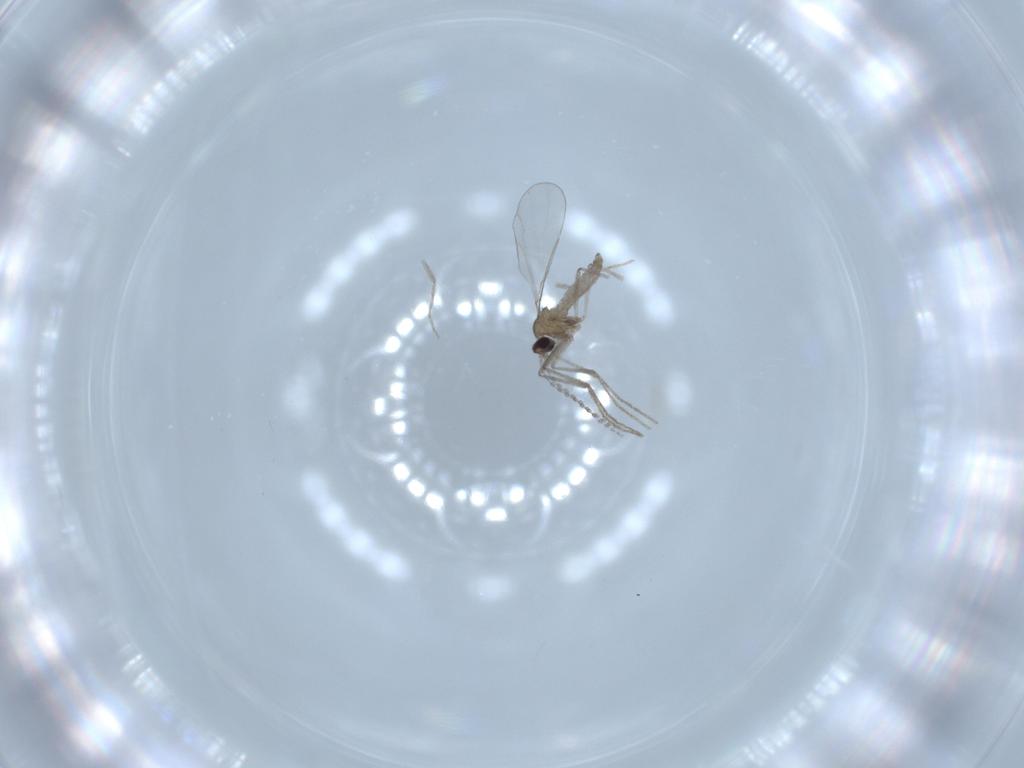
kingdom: Animalia
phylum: Arthropoda
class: Insecta
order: Diptera
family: Cecidomyiidae
